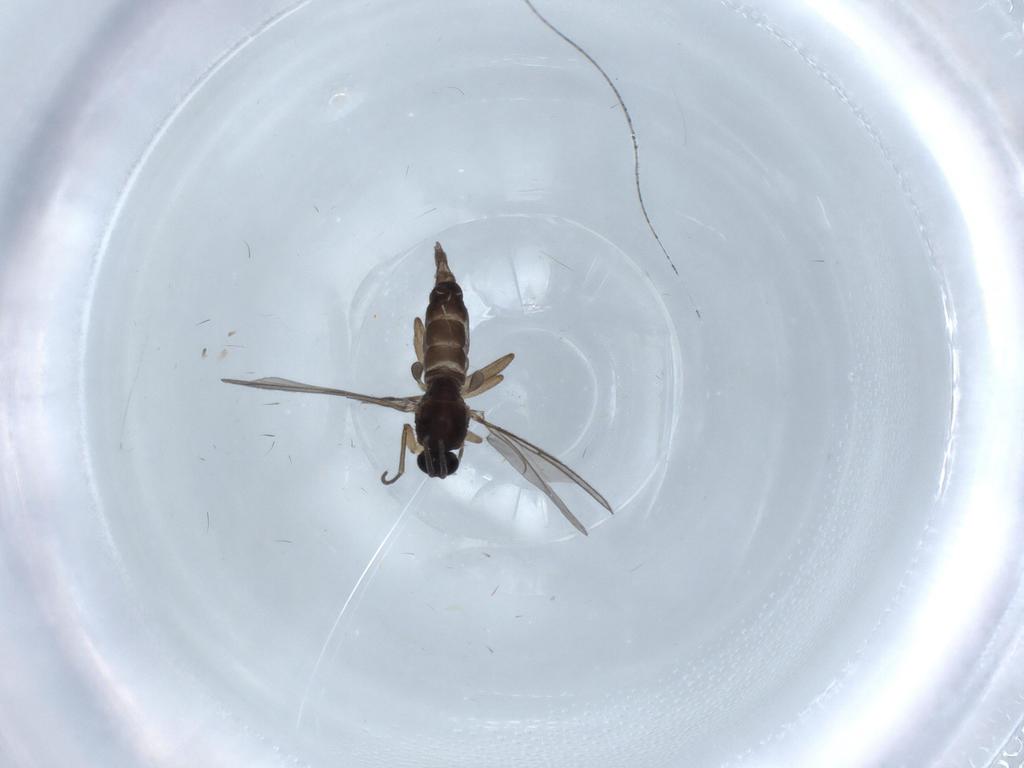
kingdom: Animalia
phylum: Arthropoda
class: Insecta
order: Diptera
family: Sciaridae
